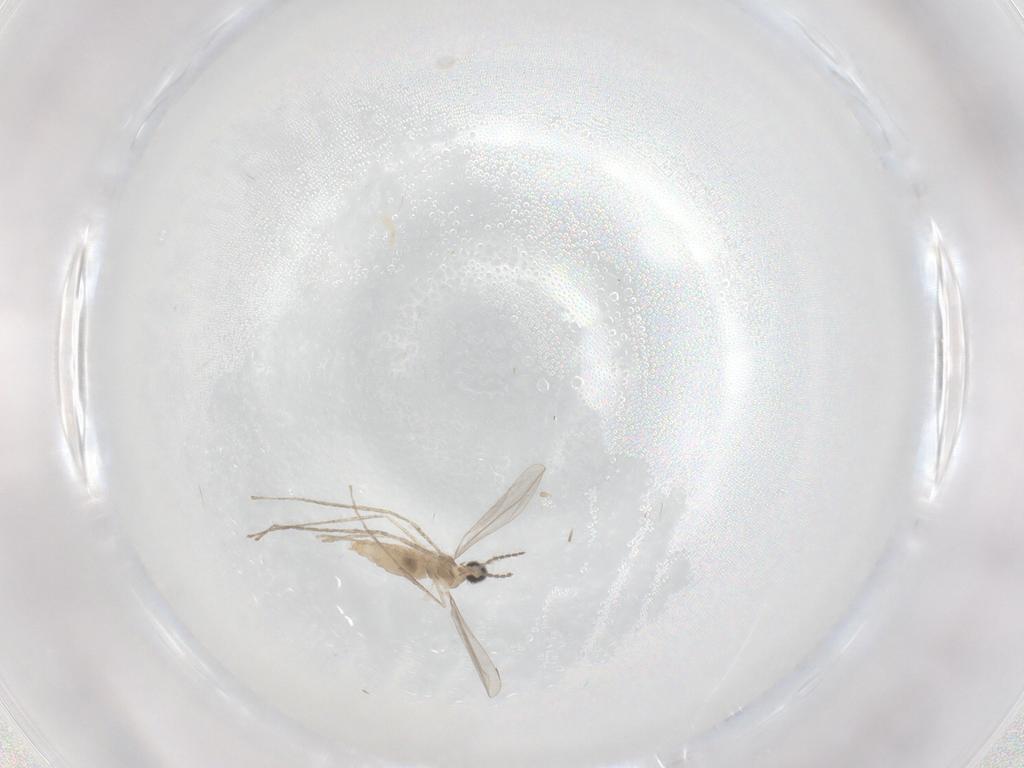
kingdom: Animalia
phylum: Arthropoda
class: Insecta
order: Diptera
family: Cecidomyiidae
